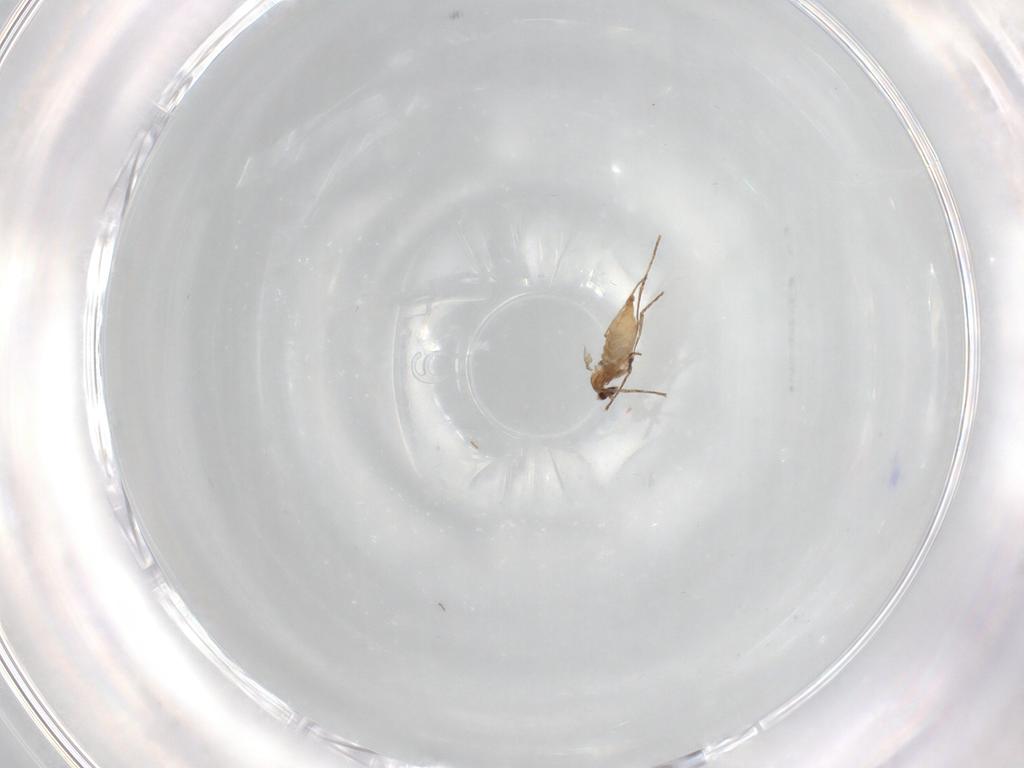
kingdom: Animalia
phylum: Arthropoda
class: Insecta
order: Diptera
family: Cecidomyiidae
